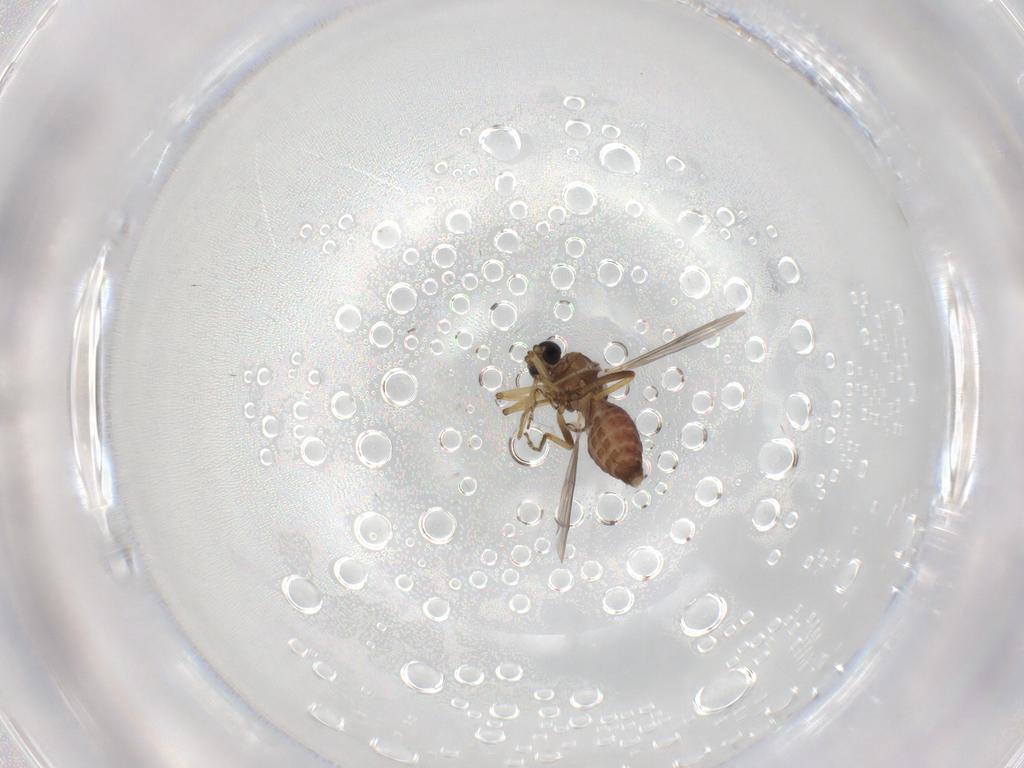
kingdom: Animalia
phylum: Arthropoda
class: Insecta
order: Diptera
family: Ceratopogonidae
